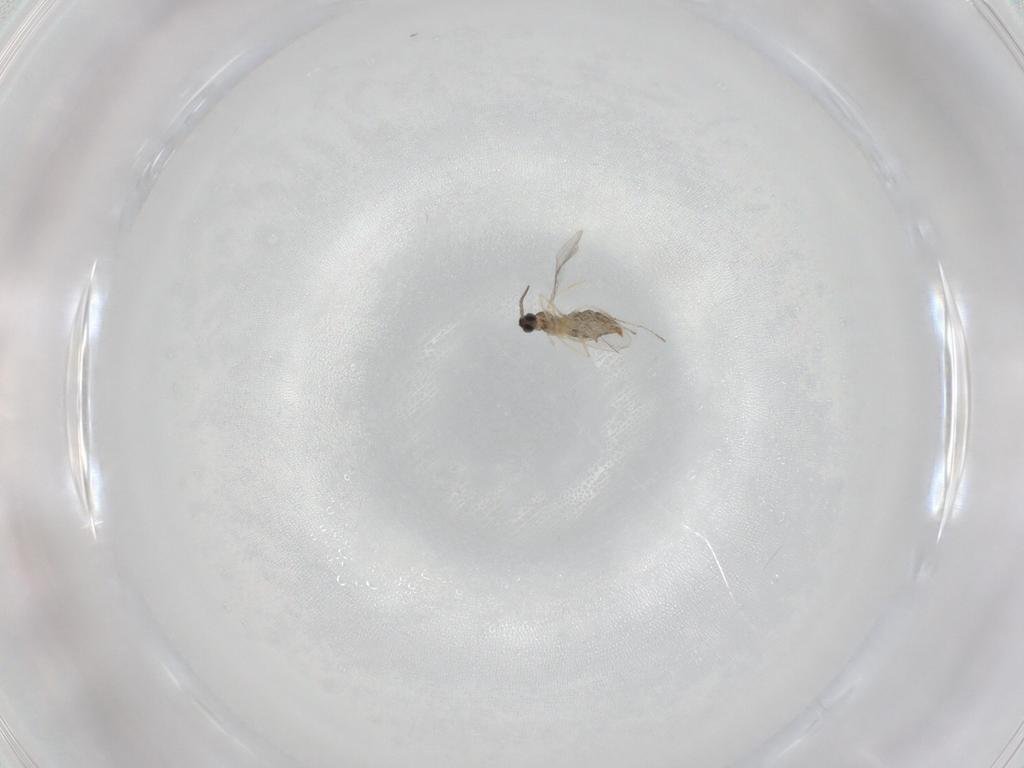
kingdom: Animalia
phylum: Arthropoda
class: Insecta
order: Diptera
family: Cecidomyiidae
